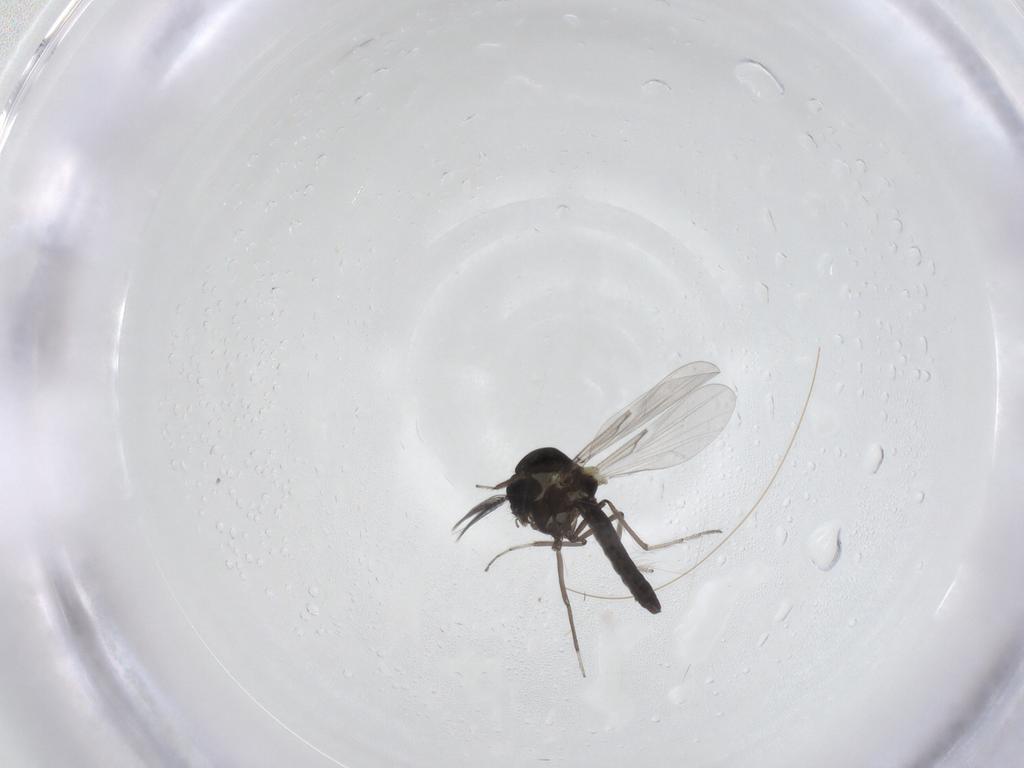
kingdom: Animalia
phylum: Arthropoda
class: Insecta
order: Diptera
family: Ceratopogonidae
